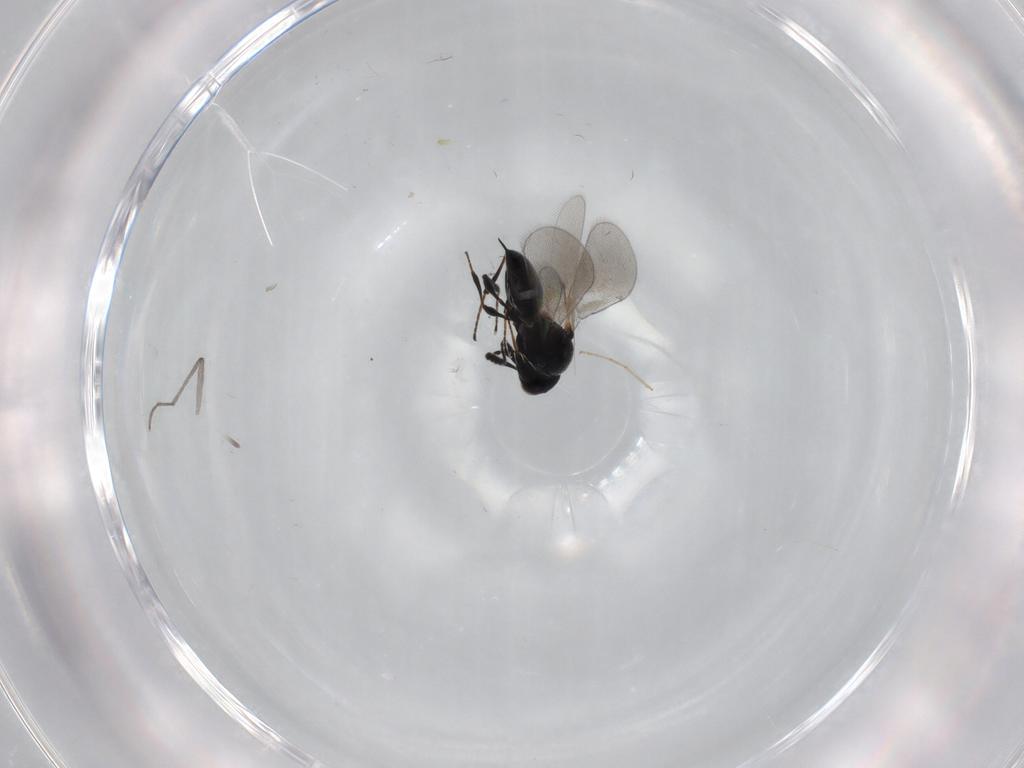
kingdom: Animalia
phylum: Arthropoda
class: Insecta
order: Hymenoptera
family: Platygastridae
